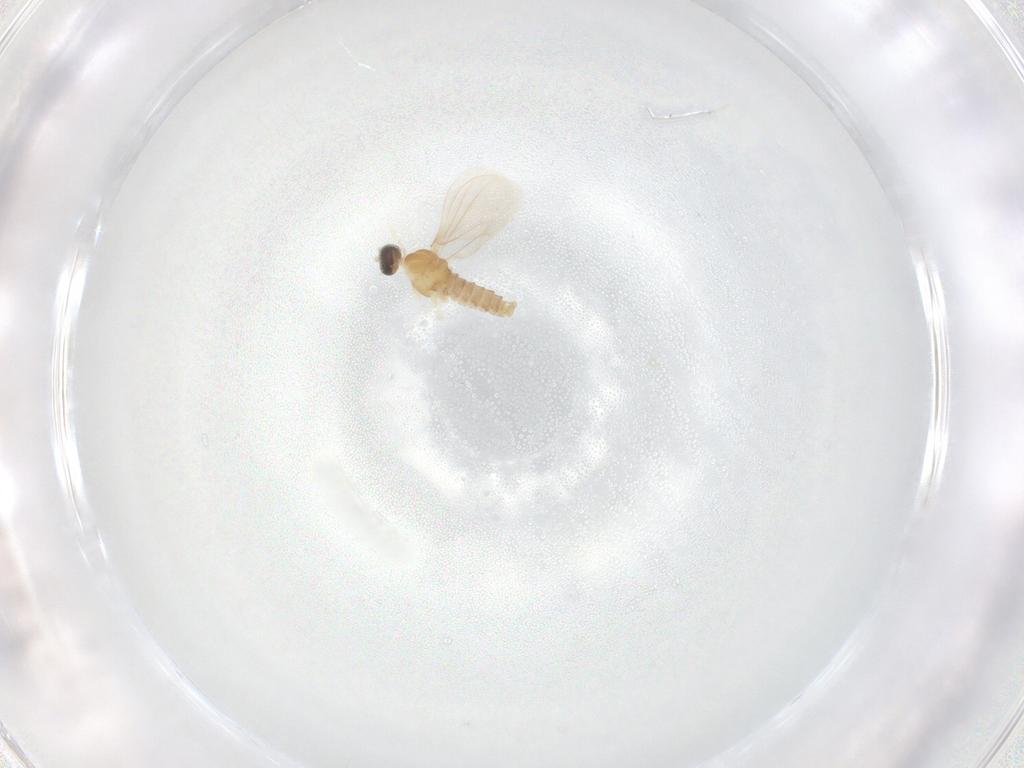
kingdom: Animalia
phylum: Arthropoda
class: Insecta
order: Diptera
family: Cecidomyiidae
